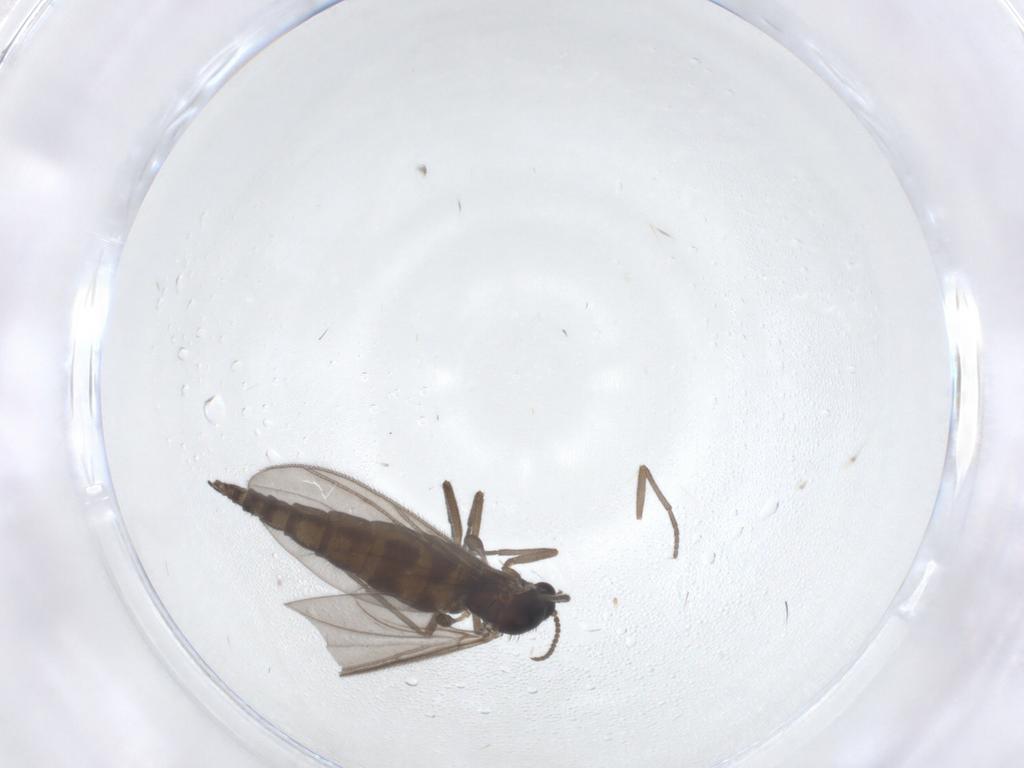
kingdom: Animalia
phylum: Arthropoda
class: Insecta
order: Diptera
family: Sciaridae
